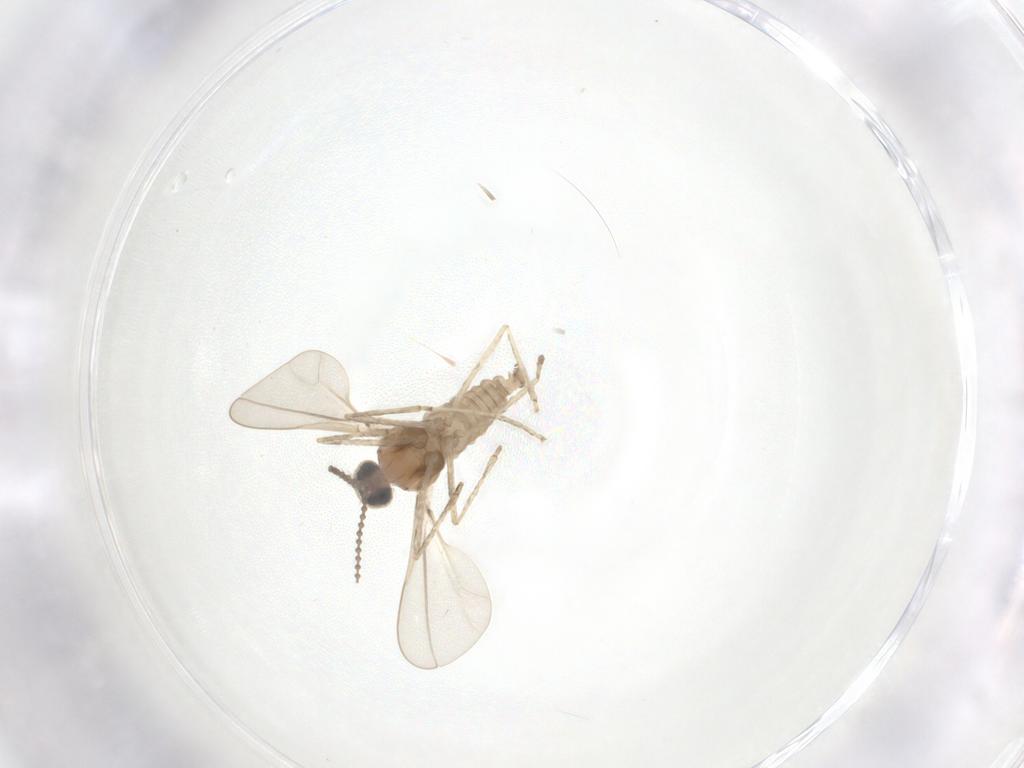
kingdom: Animalia
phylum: Arthropoda
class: Insecta
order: Diptera
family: Cecidomyiidae
